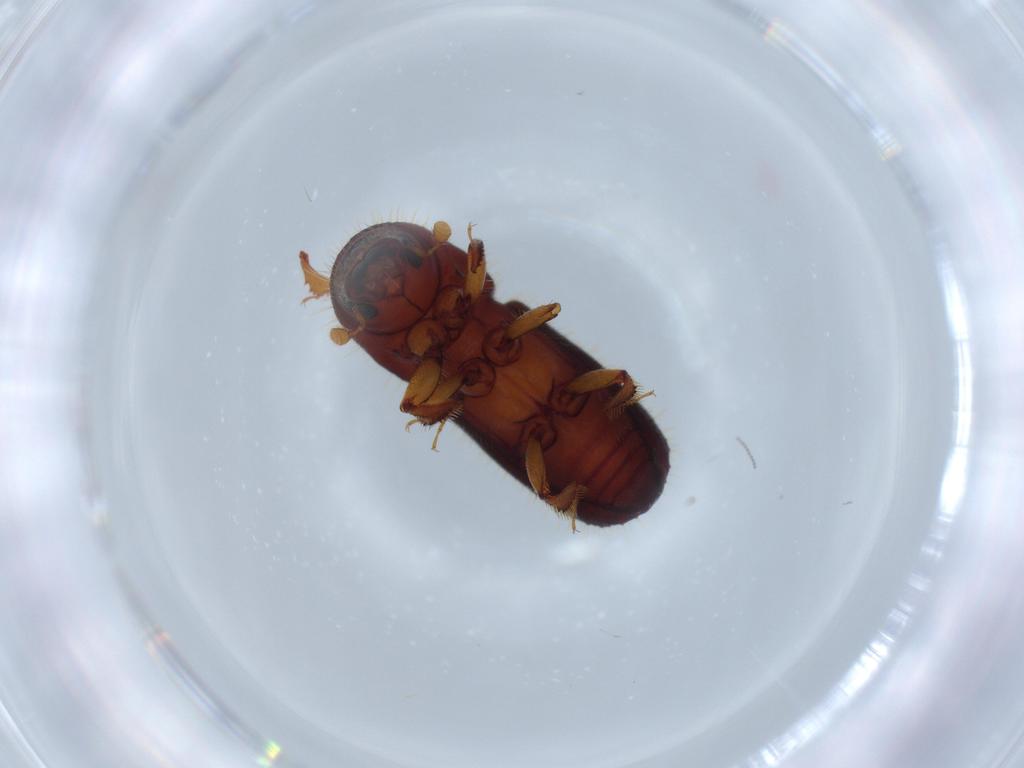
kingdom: Animalia
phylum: Arthropoda
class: Insecta
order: Coleoptera
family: Curculionidae
